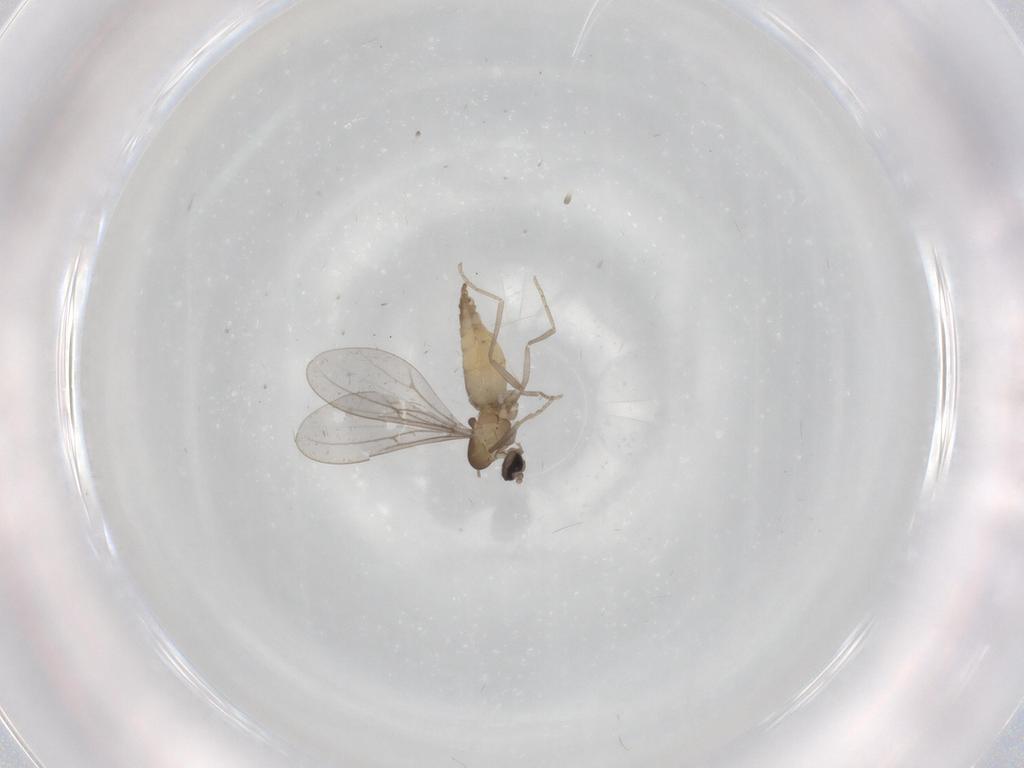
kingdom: Animalia
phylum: Arthropoda
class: Insecta
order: Diptera
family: Cecidomyiidae
